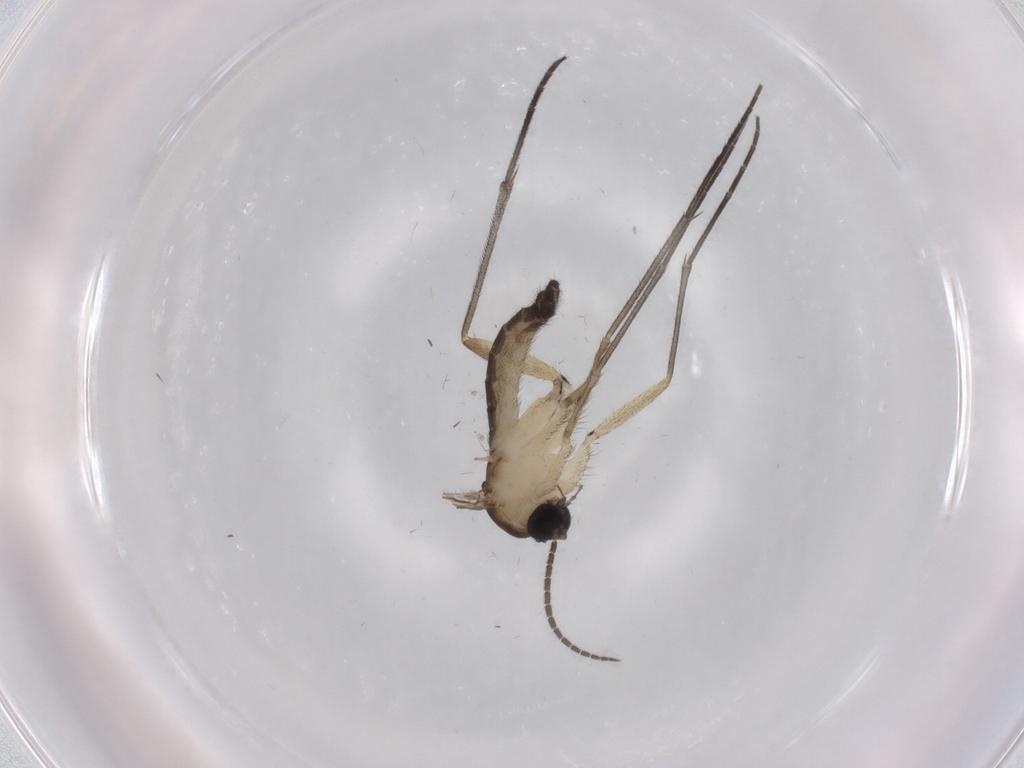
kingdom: Animalia
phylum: Arthropoda
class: Insecta
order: Diptera
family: Sciaridae
